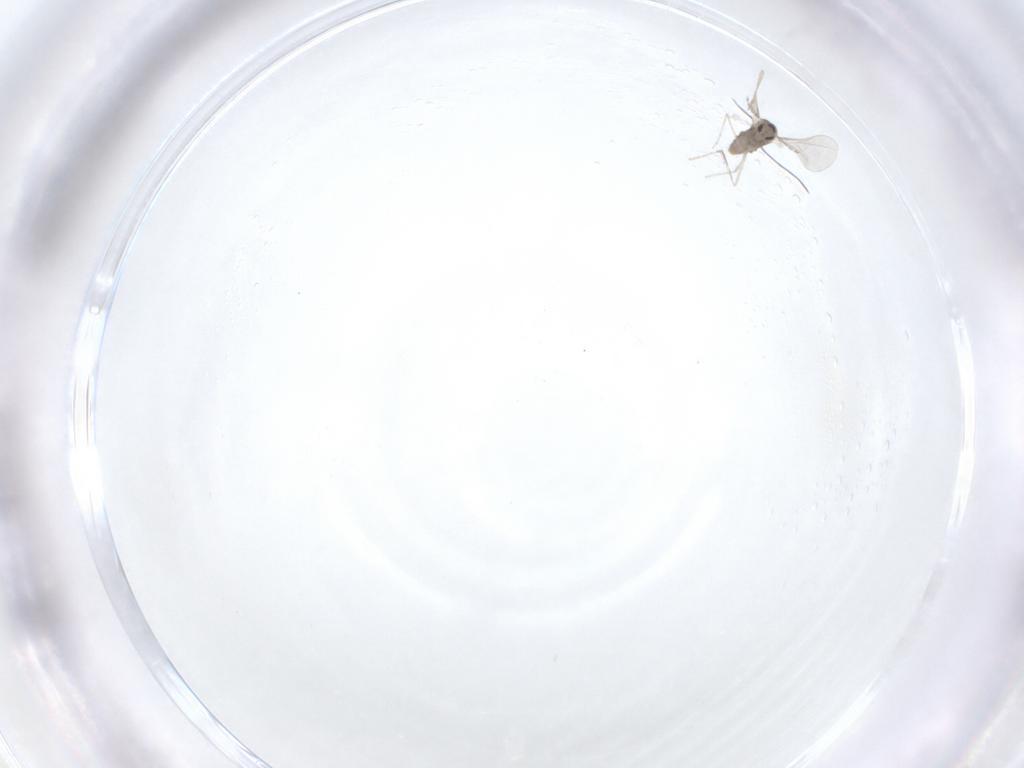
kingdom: Animalia
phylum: Arthropoda
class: Insecta
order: Diptera
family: Cecidomyiidae
